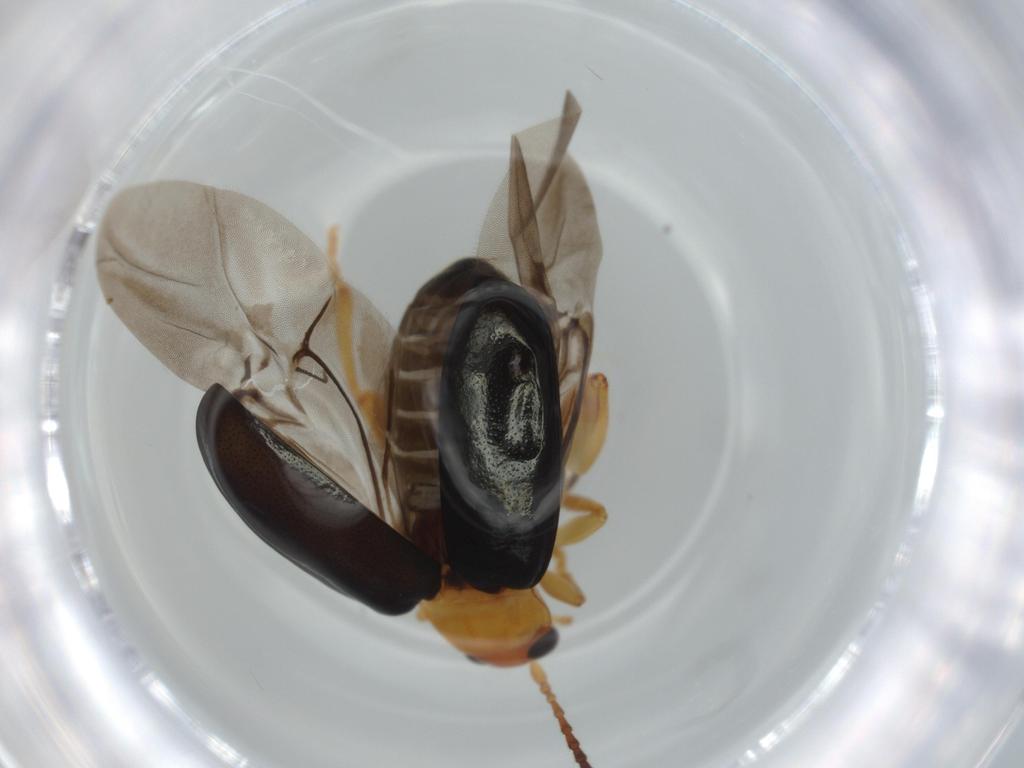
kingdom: Animalia
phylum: Arthropoda
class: Insecta
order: Coleoptera
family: Chrysomelidae
